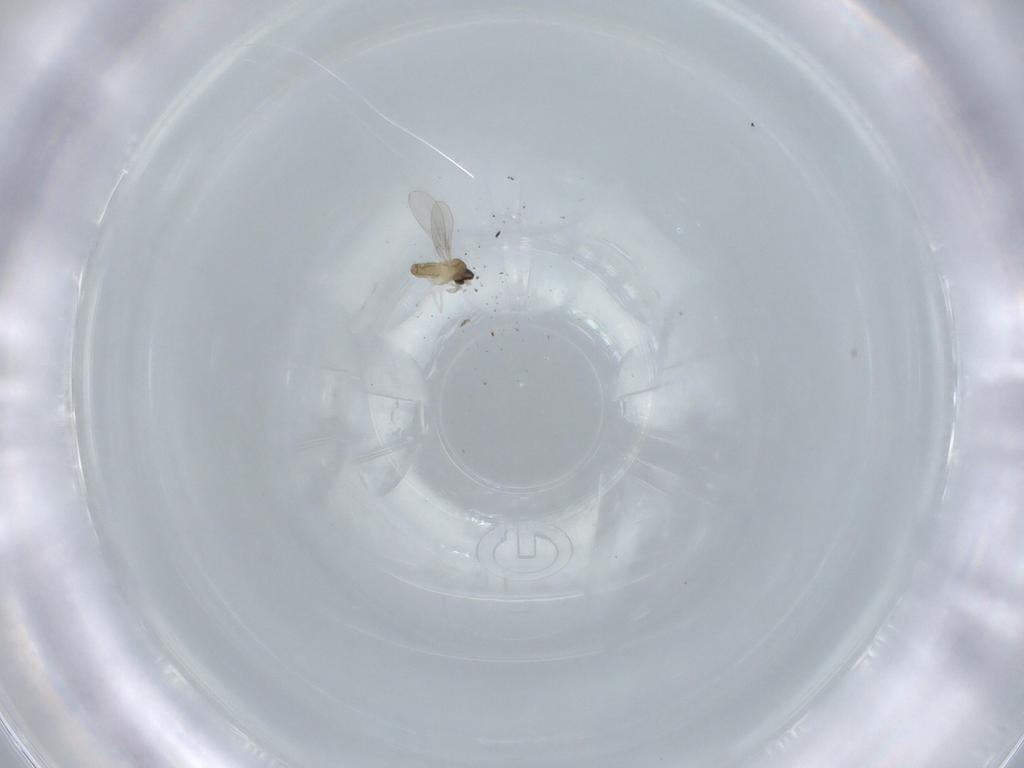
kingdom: Animalia
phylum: Arthropoda
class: Insecta
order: Diptera
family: Cecidomyiidae
